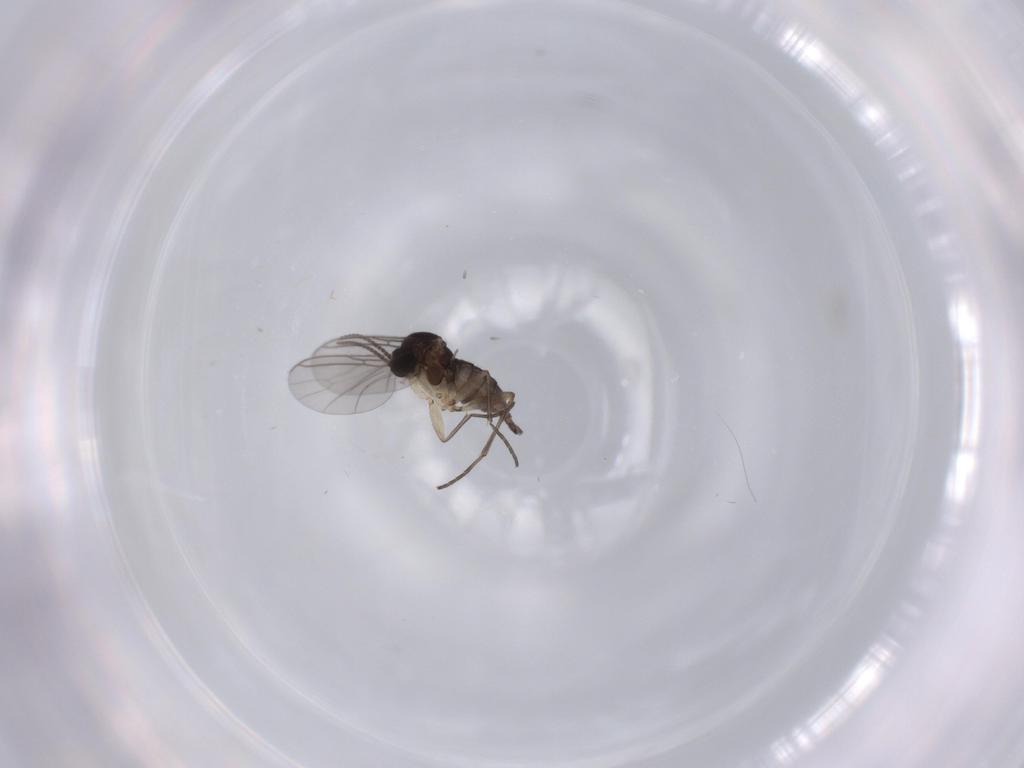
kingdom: Animalia
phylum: Arthropoda
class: Insecta
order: Diptera
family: Sciaridae
